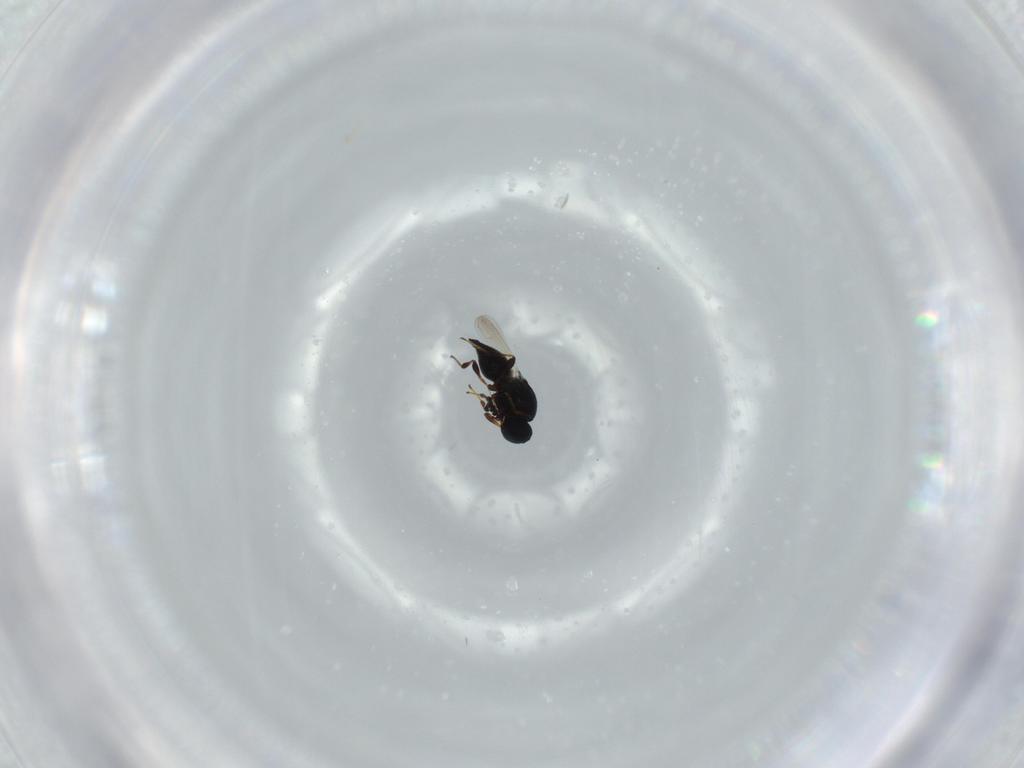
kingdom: Animalia
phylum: Arthropoda
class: Insecta
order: Hymenoptera
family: Platygastridae
